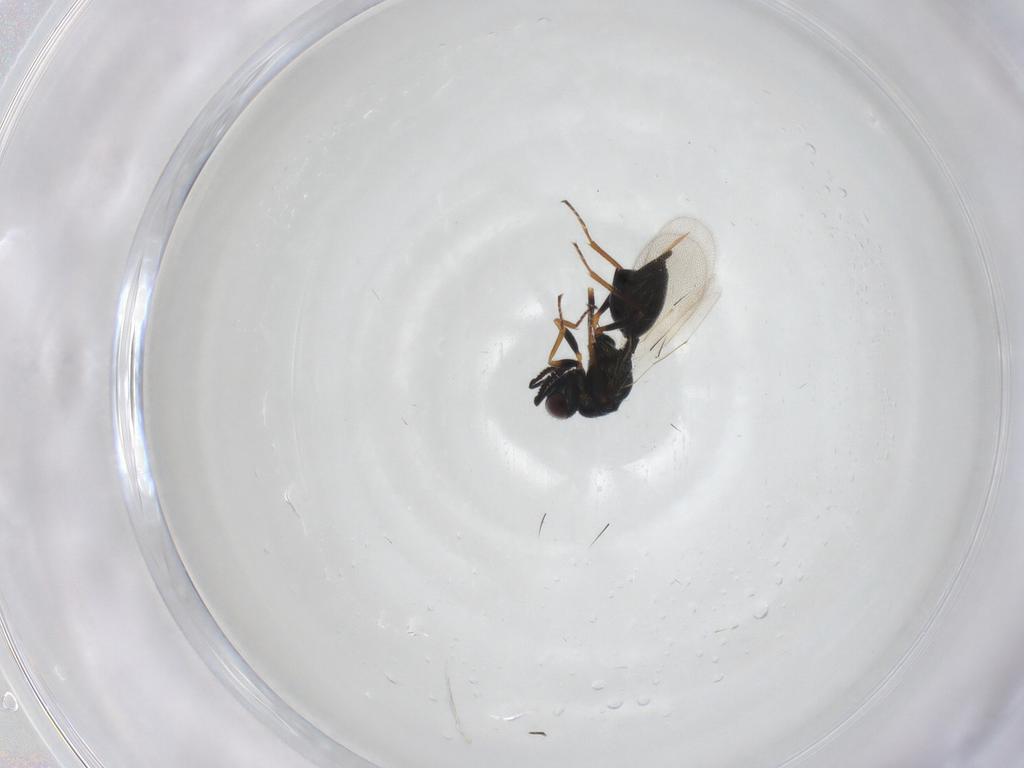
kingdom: Animalia
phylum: Arthropoda
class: Insecta
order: Hymenoptera
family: Chalcidoidea_incertae_sedis
